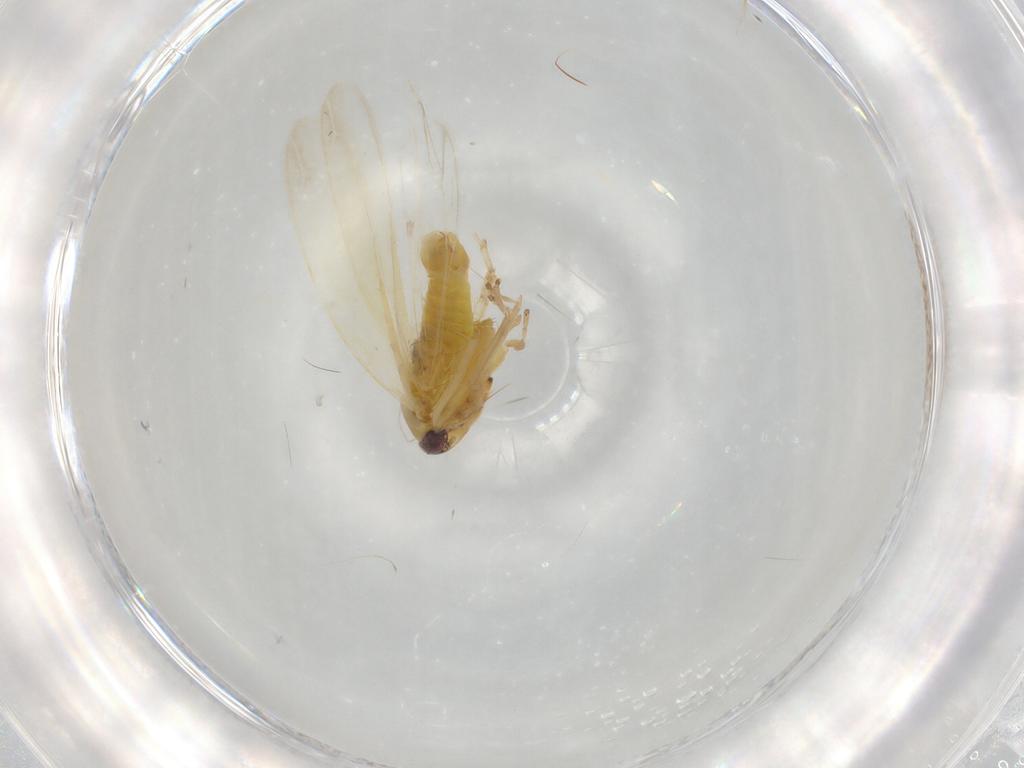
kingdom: Animalia
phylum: Arthropoda
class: Insecta
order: Hemiptera
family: Cicadellidae
